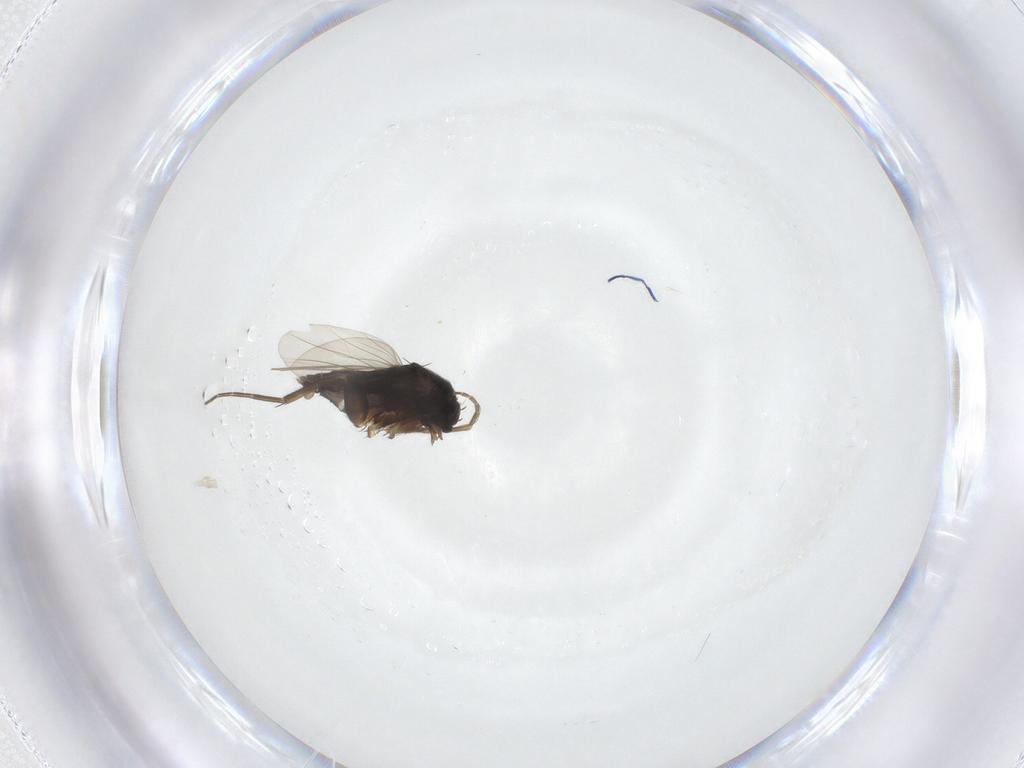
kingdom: Animalia
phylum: Arthropoda
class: Insecta
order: Diptera
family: Phoridae
